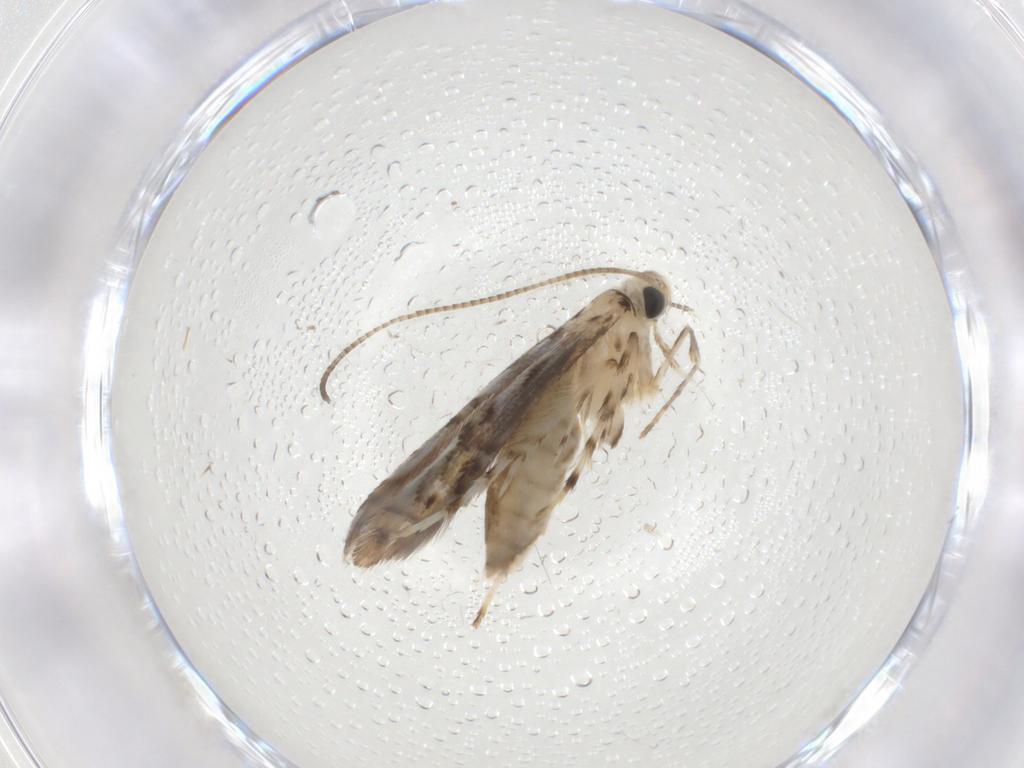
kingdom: Animalia
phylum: Arthropoda
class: Insecta
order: Lepidoptera
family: Gracillariidae
